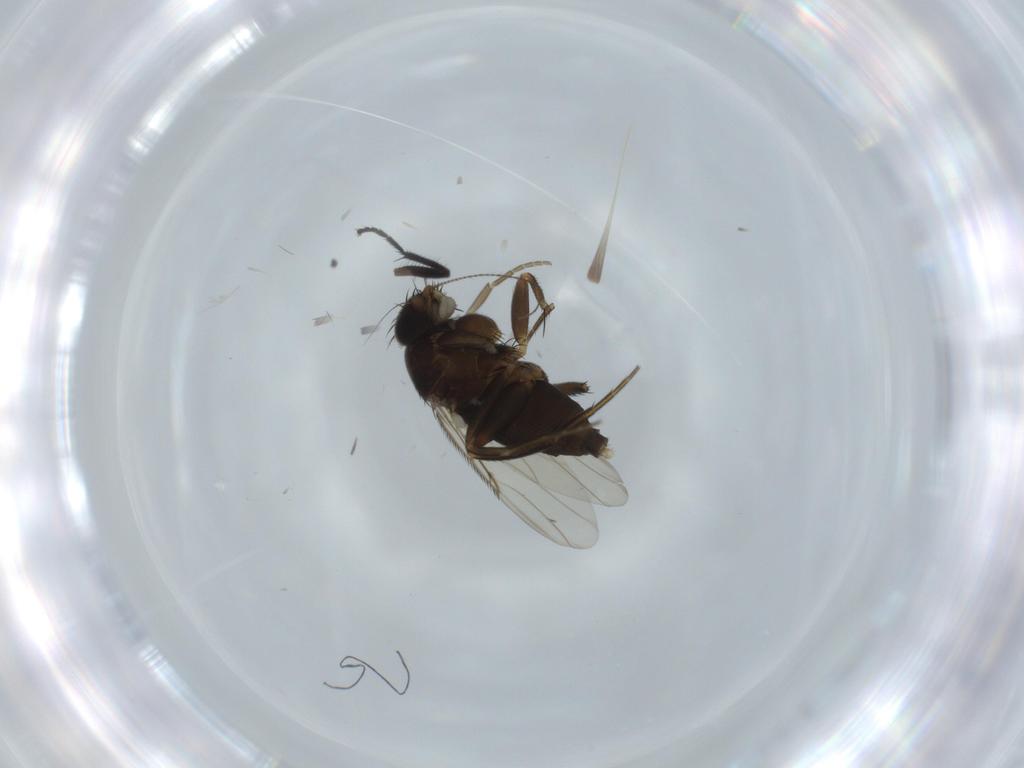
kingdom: Animalia
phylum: Arthropoda
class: Insecta
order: Diptera
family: Phoridae
